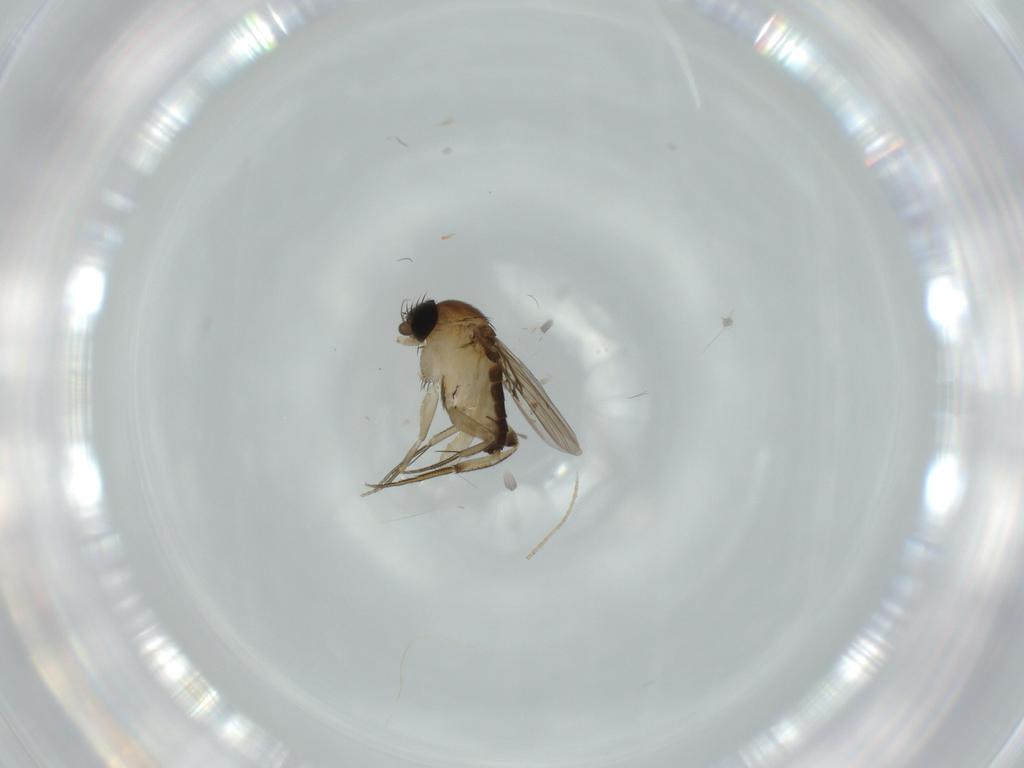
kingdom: Animalia
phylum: Arthropoda
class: Insecta
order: Diptera
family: Phoridae
